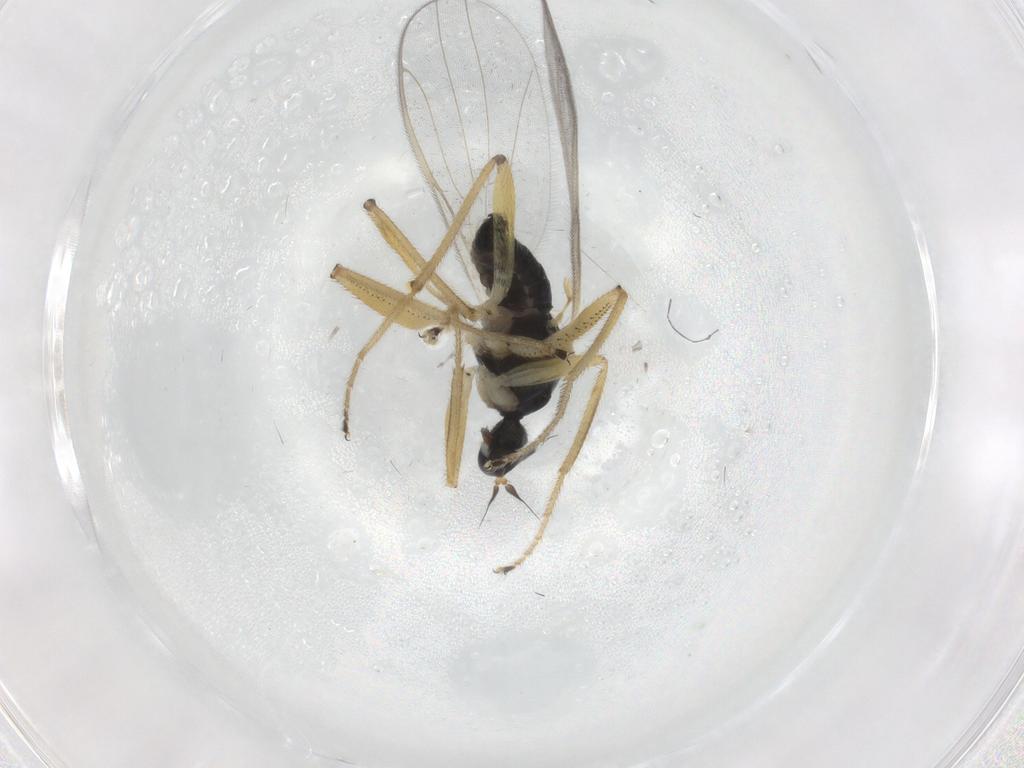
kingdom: Animalia
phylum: Arthropoda
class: Insecta
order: Diptera
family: Hybotidae
